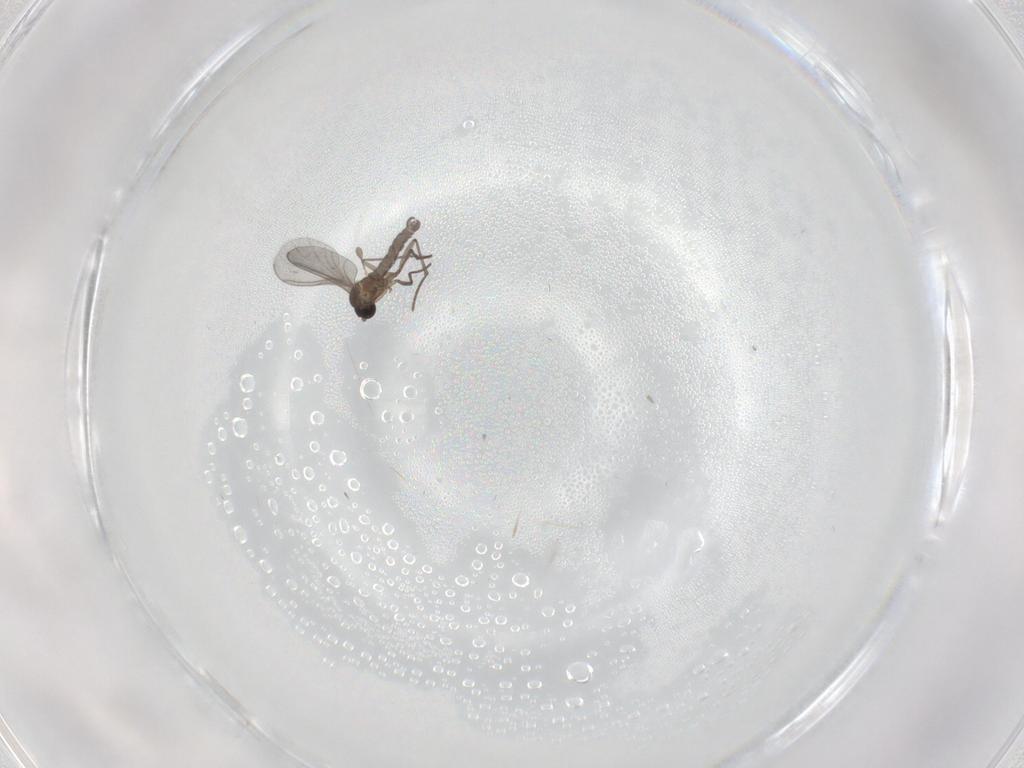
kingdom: Animalia
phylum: Arthropoda
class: Insecta
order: Diptera
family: Sciaridae
